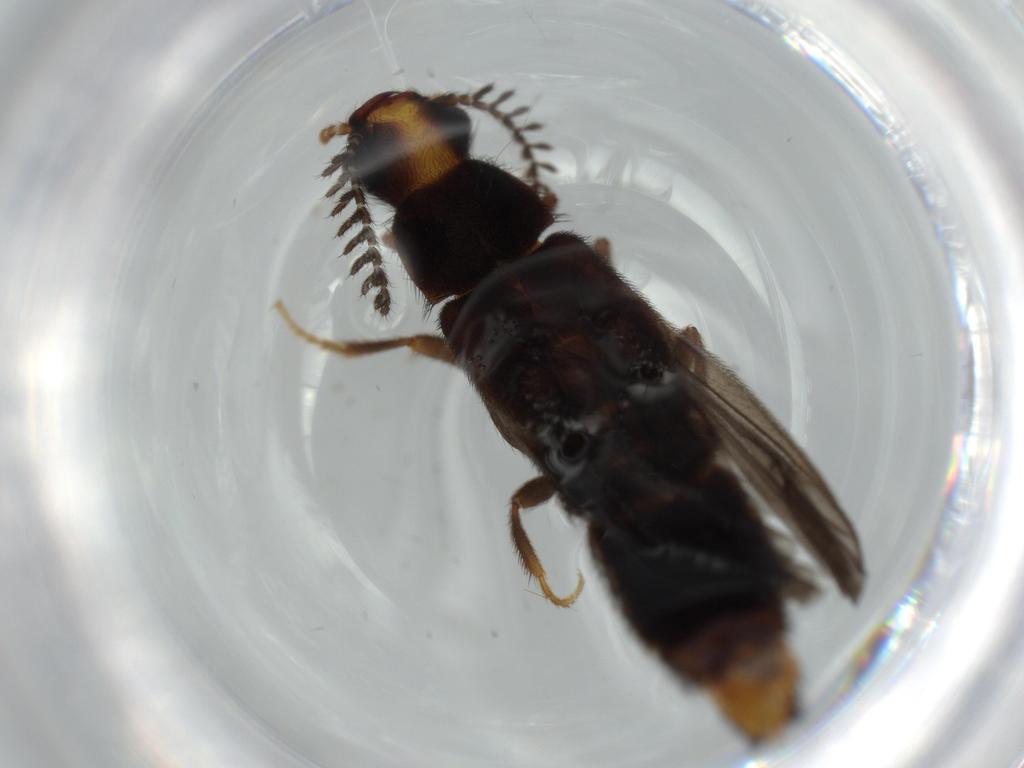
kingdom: Animalia
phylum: Arthropoda
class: Insecta
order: Coleoptera
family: Phengodidae
